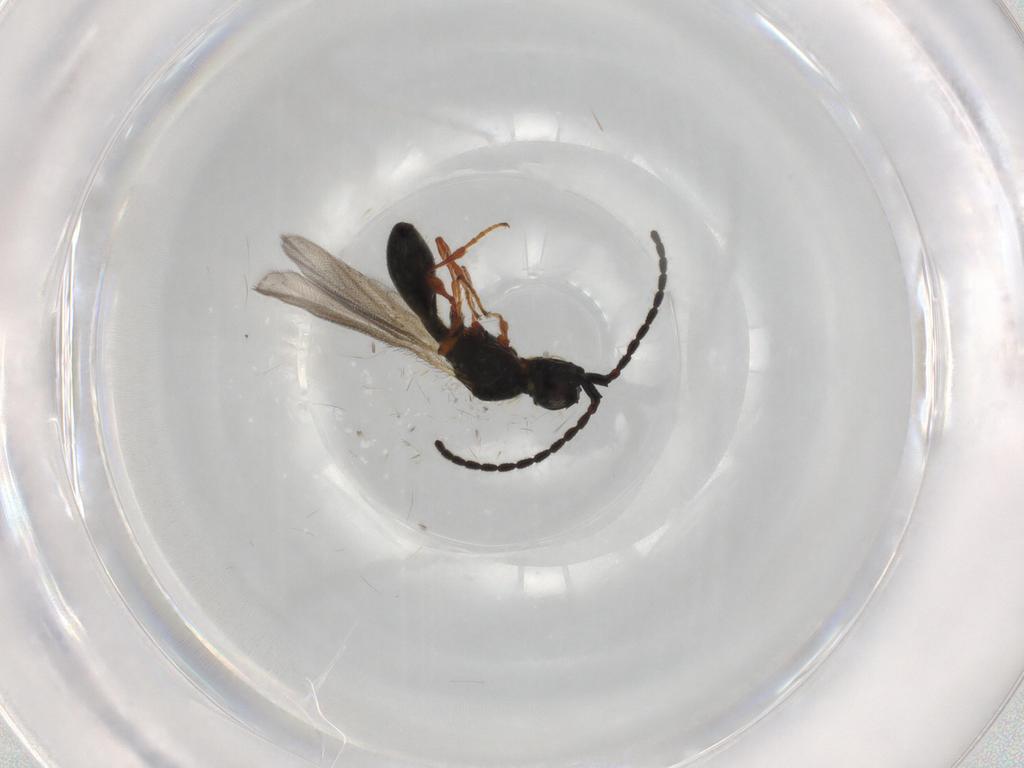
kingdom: Animalia
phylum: Arthropoda
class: Insecta
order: Hymenoptera
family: Diapriidae
